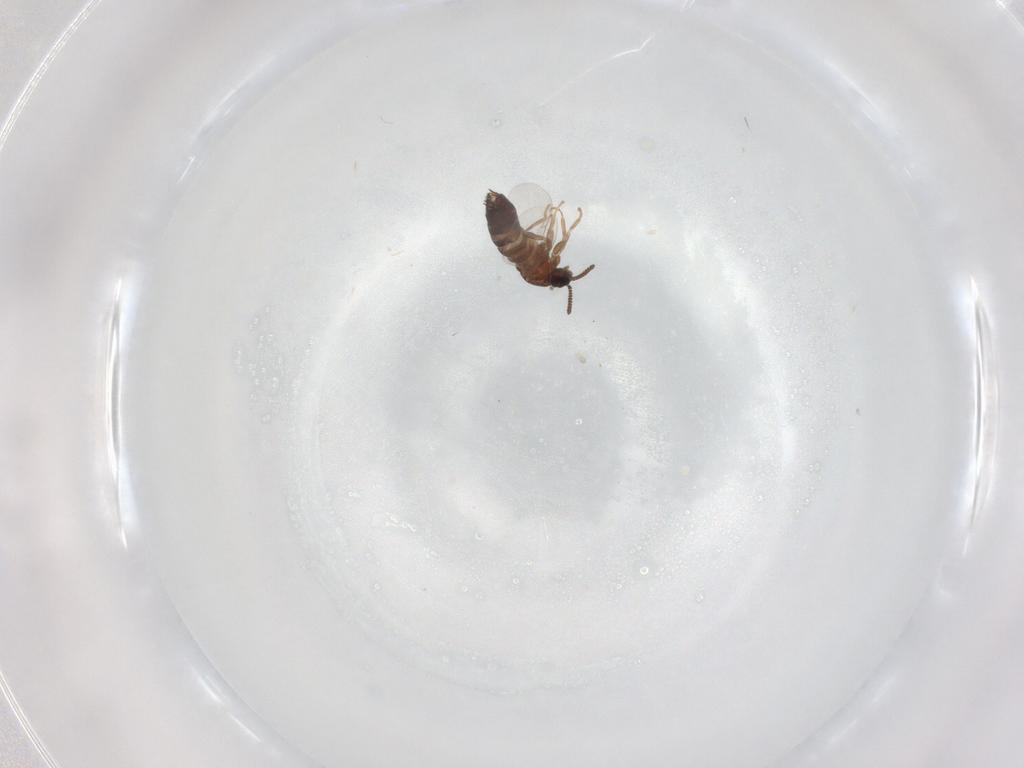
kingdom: Animalia
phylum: Arthropoda
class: Insecta
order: Diptera
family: Scatopsidae
